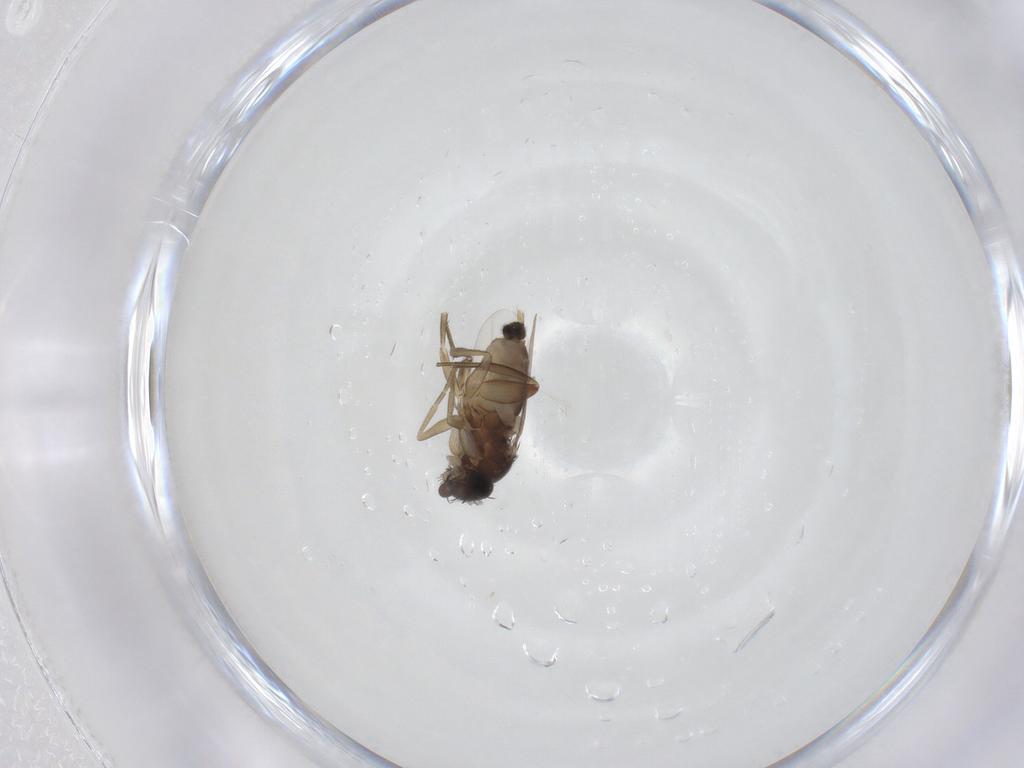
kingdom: Animalia
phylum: Arthropoda
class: Insecta
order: Diptera
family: Phoridae
